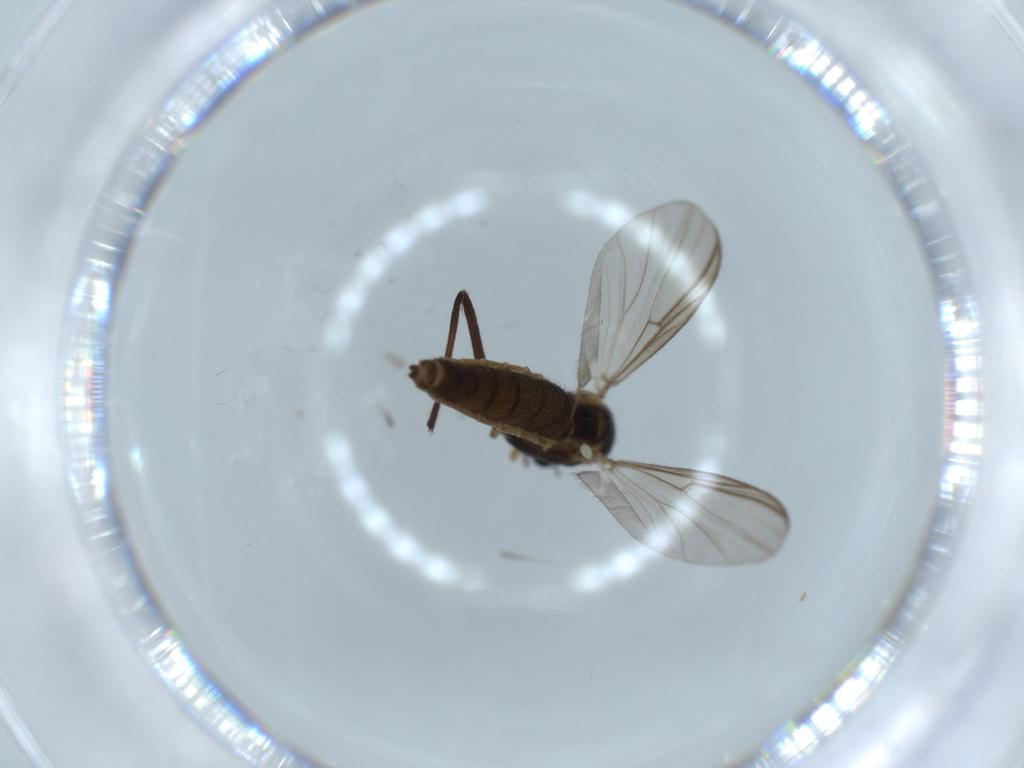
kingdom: Animalia
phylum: Arthropoda
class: Insecta
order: Diptera
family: Chironomidae
